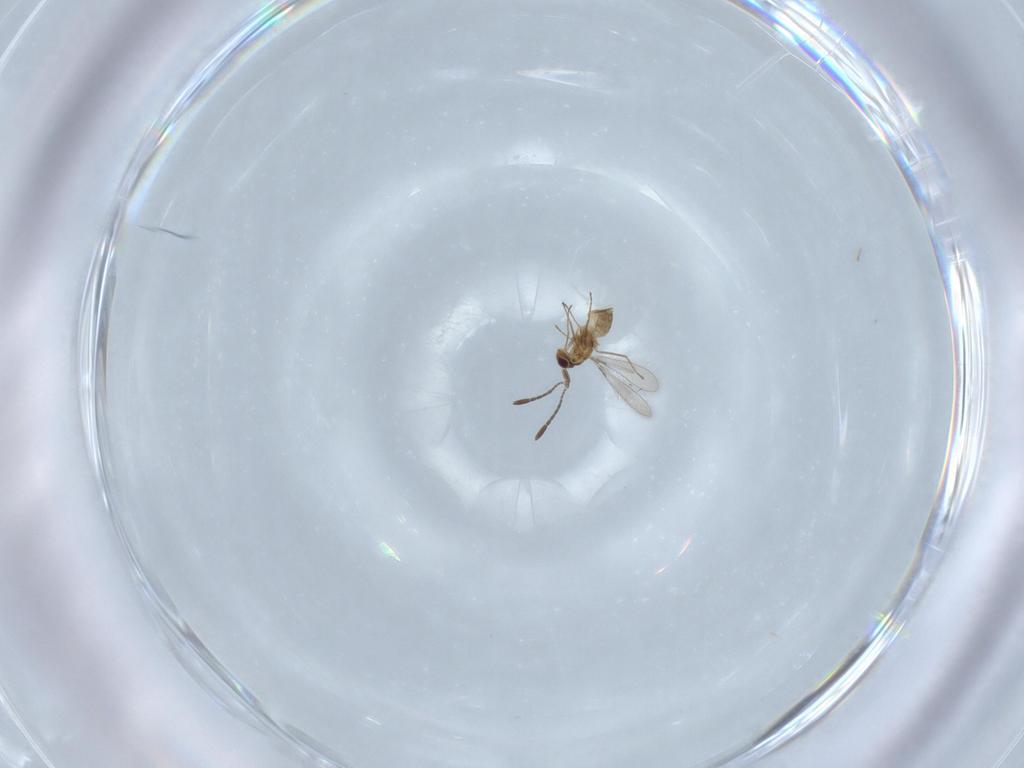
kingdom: Animalia
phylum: Arthropoda
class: Insecta
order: Hymenoptera
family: Mymaridae
